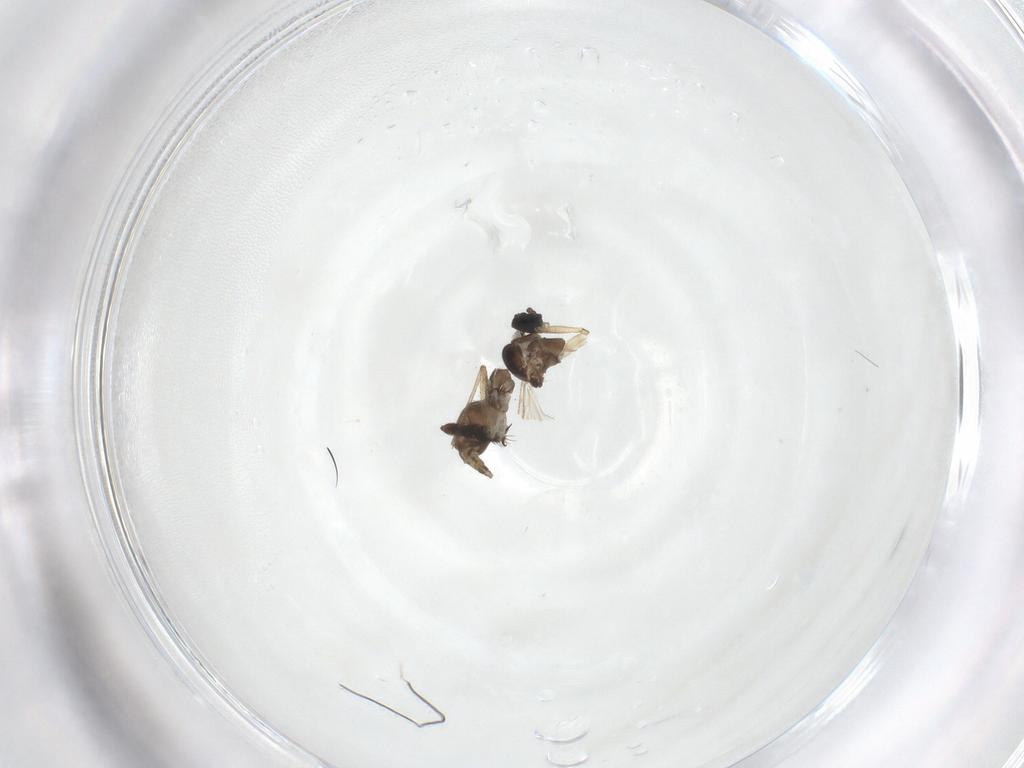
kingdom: Animalia
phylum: Arthropoda
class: Insecta
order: Diptera
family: Sciaridae
